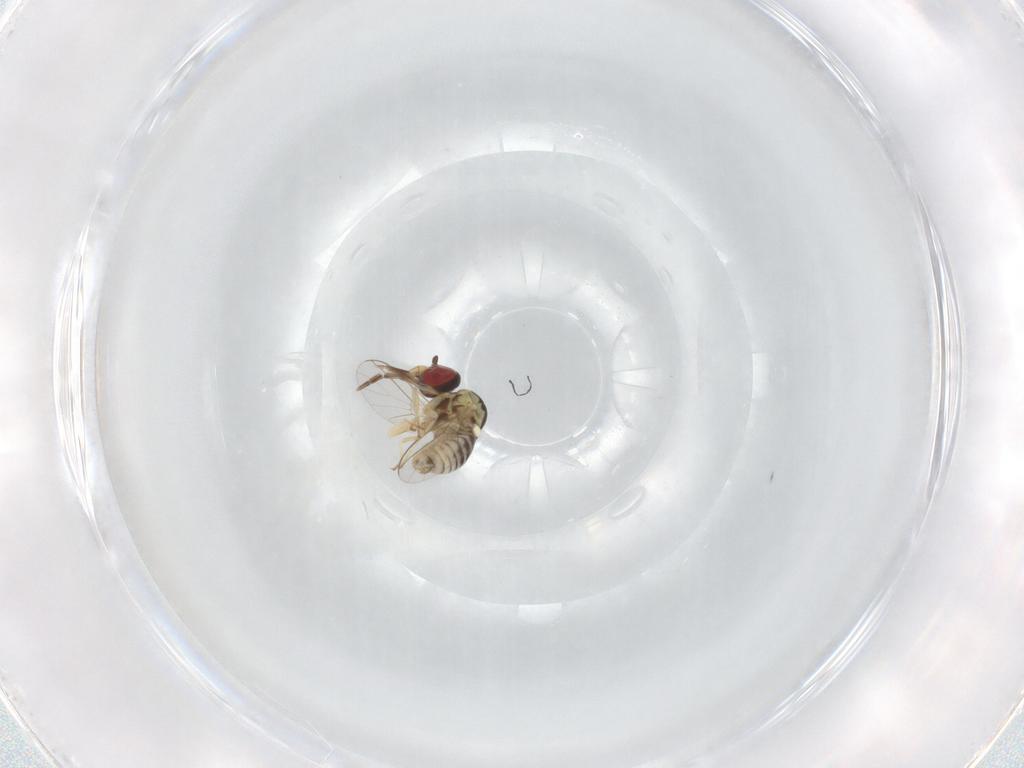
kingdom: Animalia
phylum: Arthropoda
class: Insecta
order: Diptera
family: Cecidomyiidae
